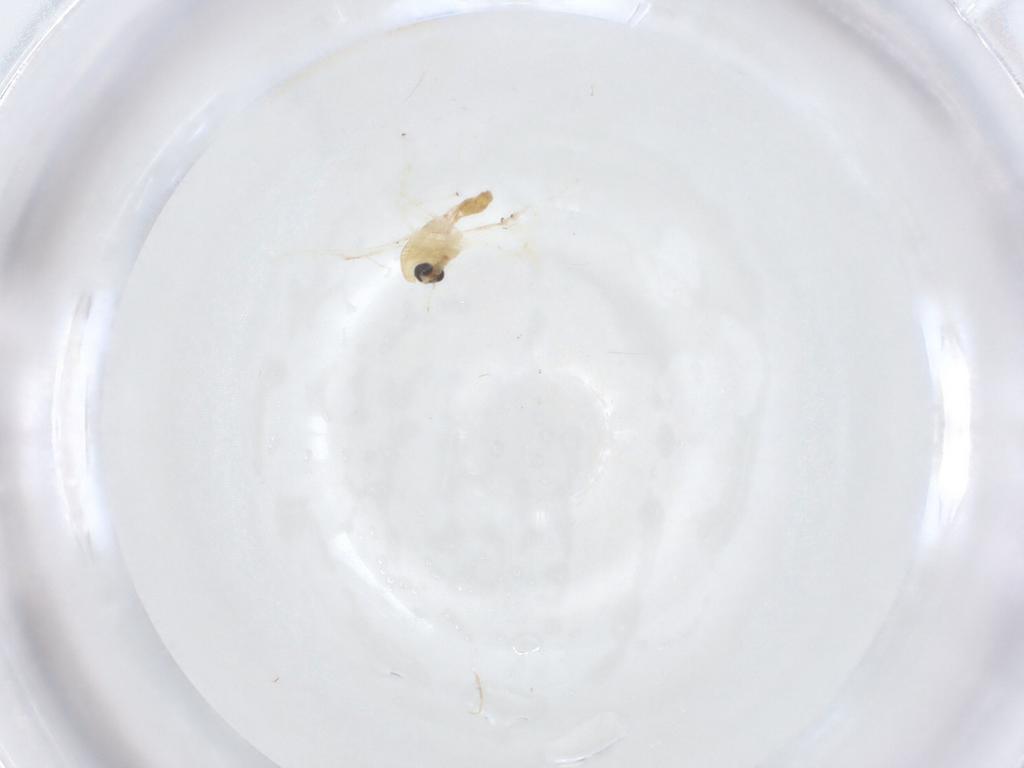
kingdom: Animalia
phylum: Arthropoda
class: Insecta
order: Diptera
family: Chironomidae
